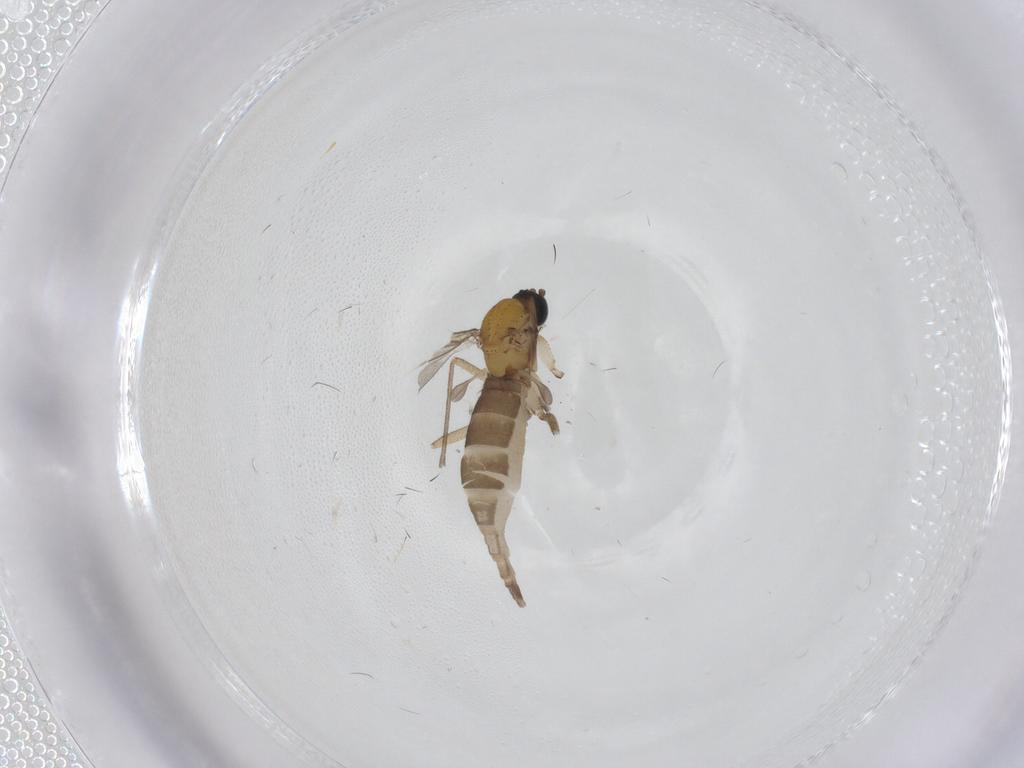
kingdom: Animalia
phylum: Arthropoda
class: Insecta
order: Diptera
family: Sciaridae
